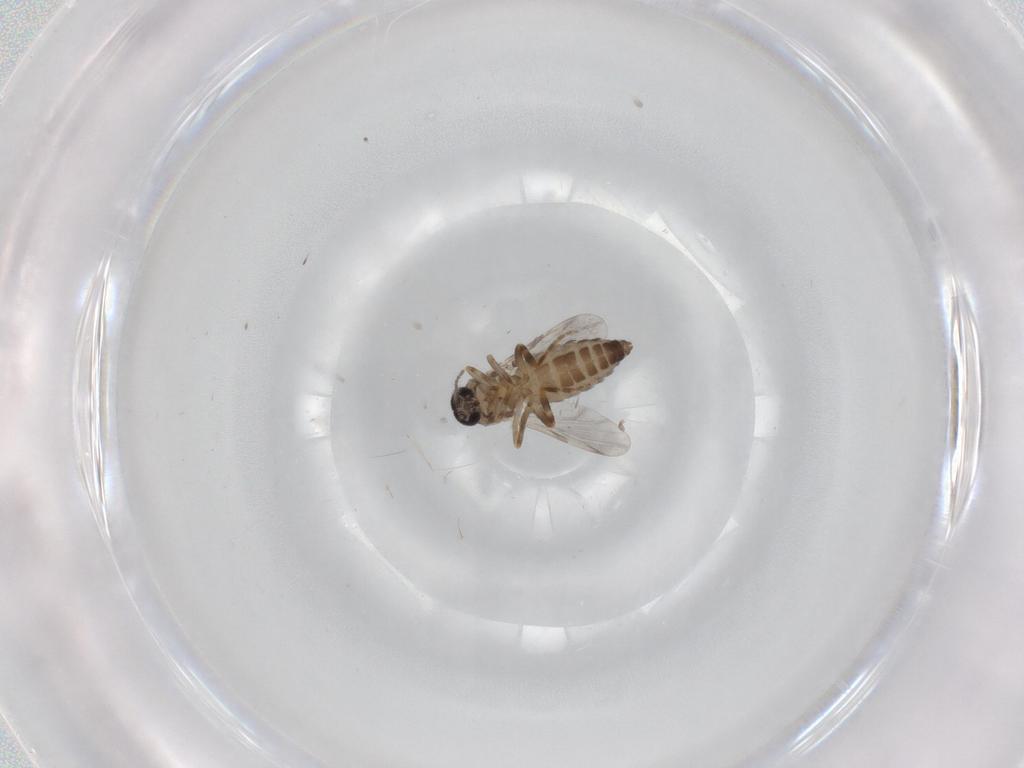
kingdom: Animalia
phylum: Arthropoda
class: Insecta
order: Diptera
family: Ceratopogonidae
